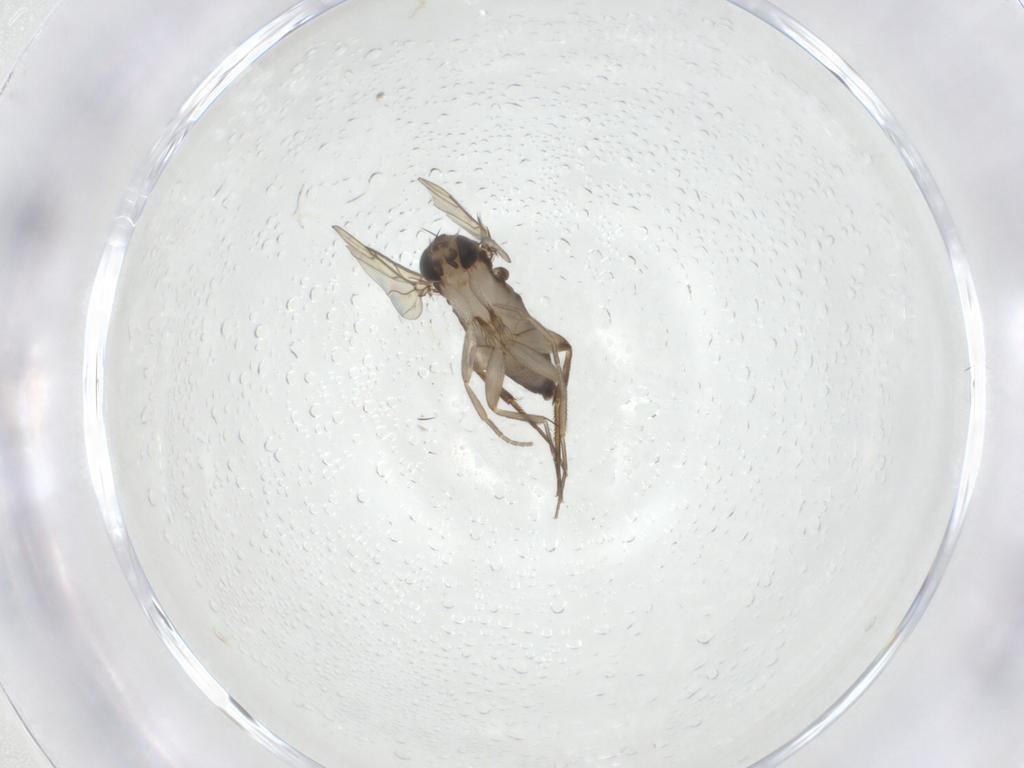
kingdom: Animalia
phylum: Arthropoda
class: Insecta
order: Diptera
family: Phoridae
